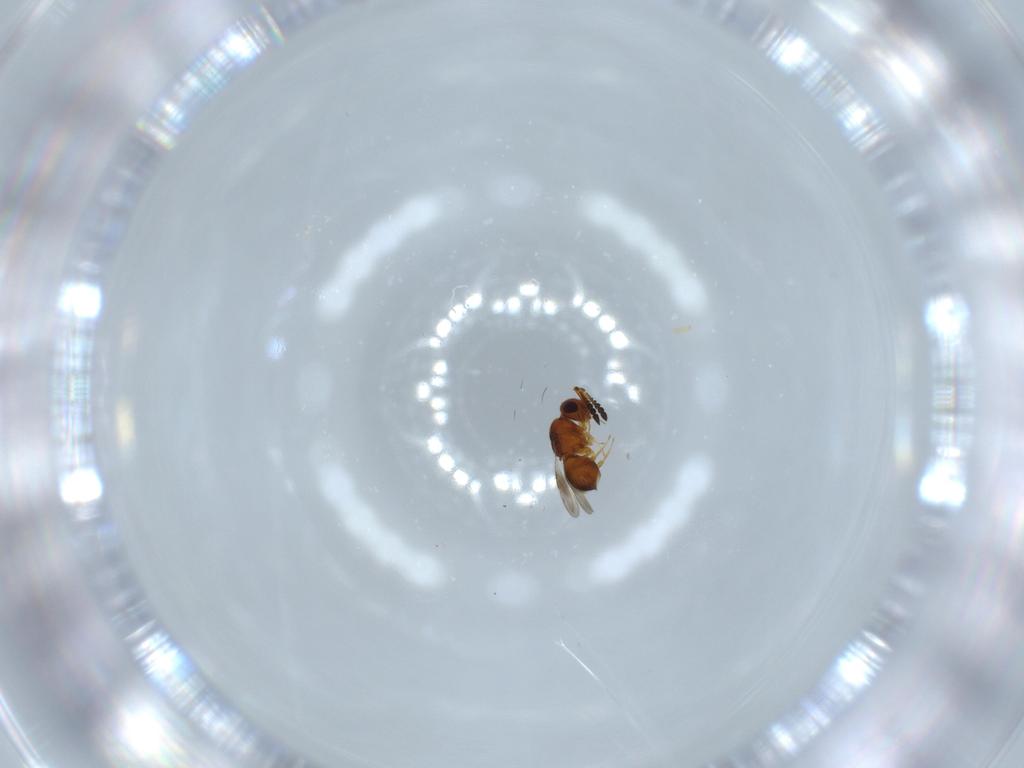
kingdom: Animalia
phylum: Arthropoda
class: Insecta
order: Hymenoptera
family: Ceraphronidae
